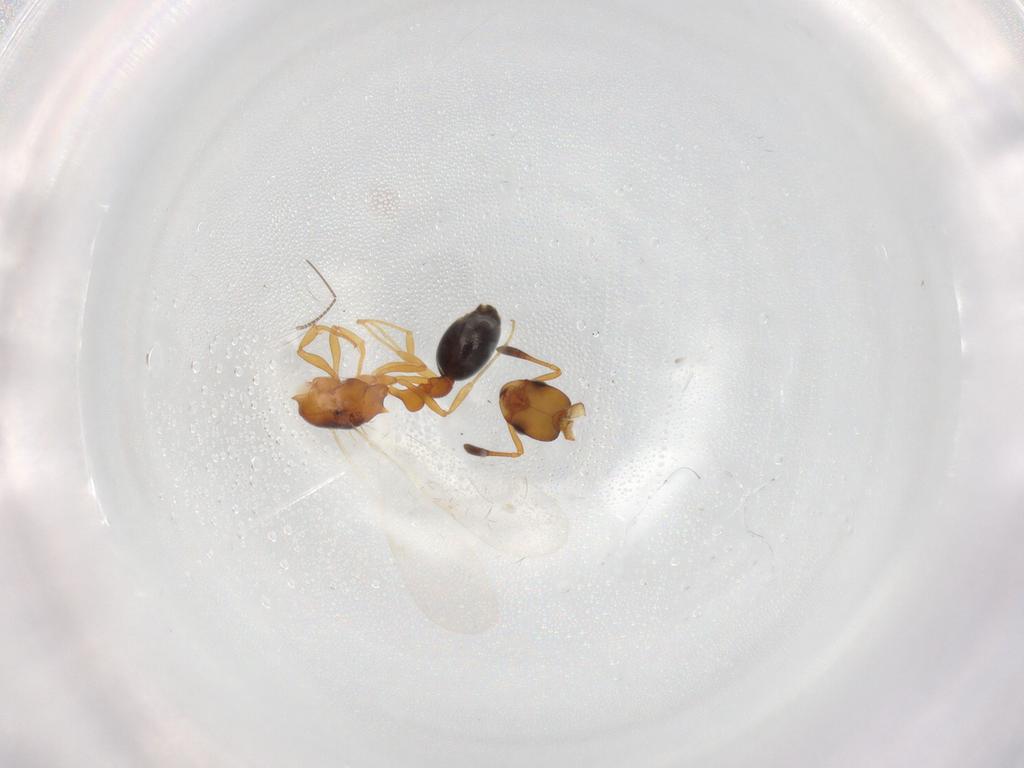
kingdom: Animalia
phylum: Arthropoda
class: Insecta
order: Hymenoptera
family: Formicidae
